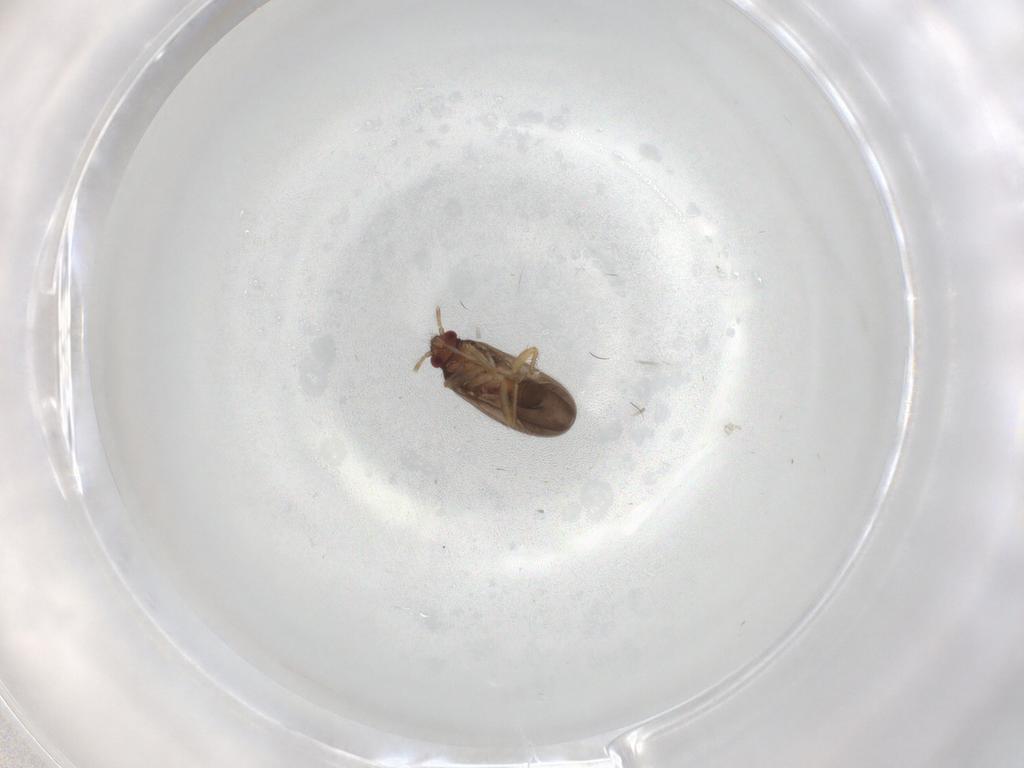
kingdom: Animalia
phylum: Arthropoda
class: Insecta
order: Hemiptera
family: Ceratocombidae
